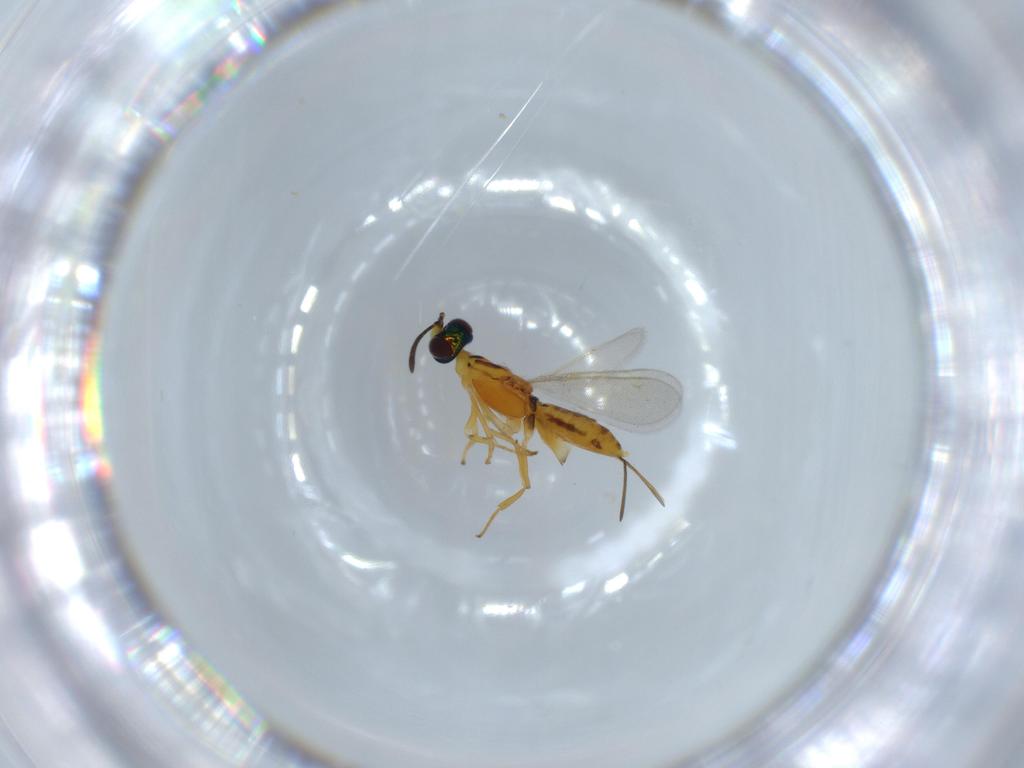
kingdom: Animalia
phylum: Arthropoda
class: Insecta
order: Hymenoptera
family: Eupelmidae
